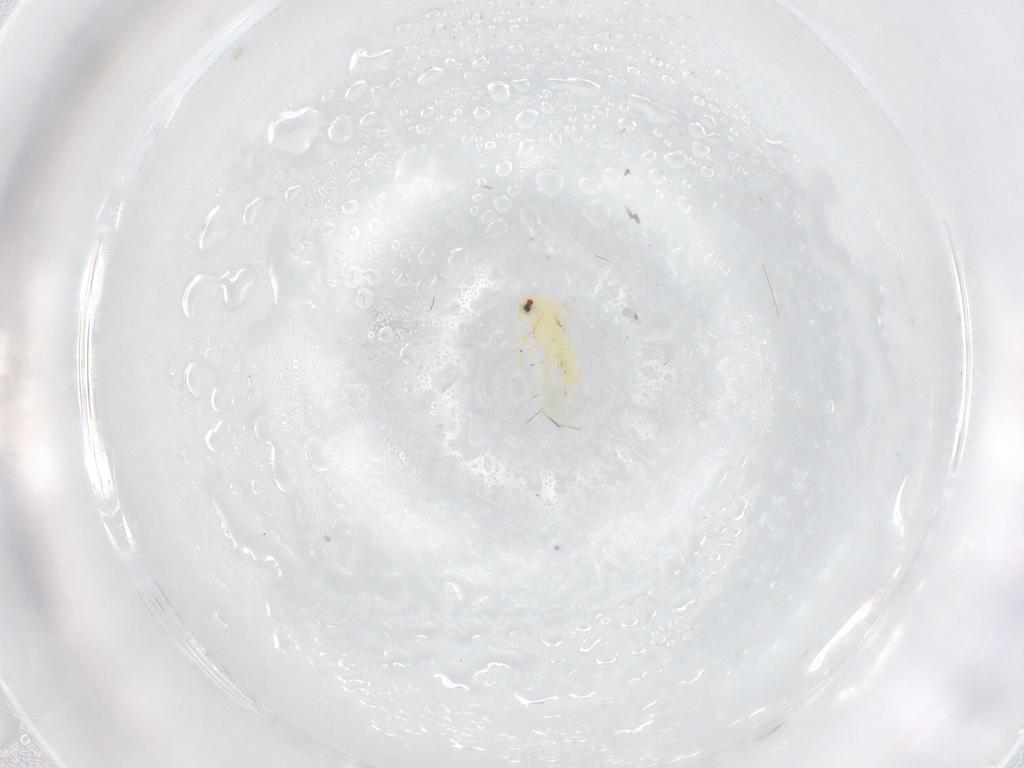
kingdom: Animalia
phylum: Arthropoda
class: Insecta
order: Hemiptera
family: Aleyrodidae
